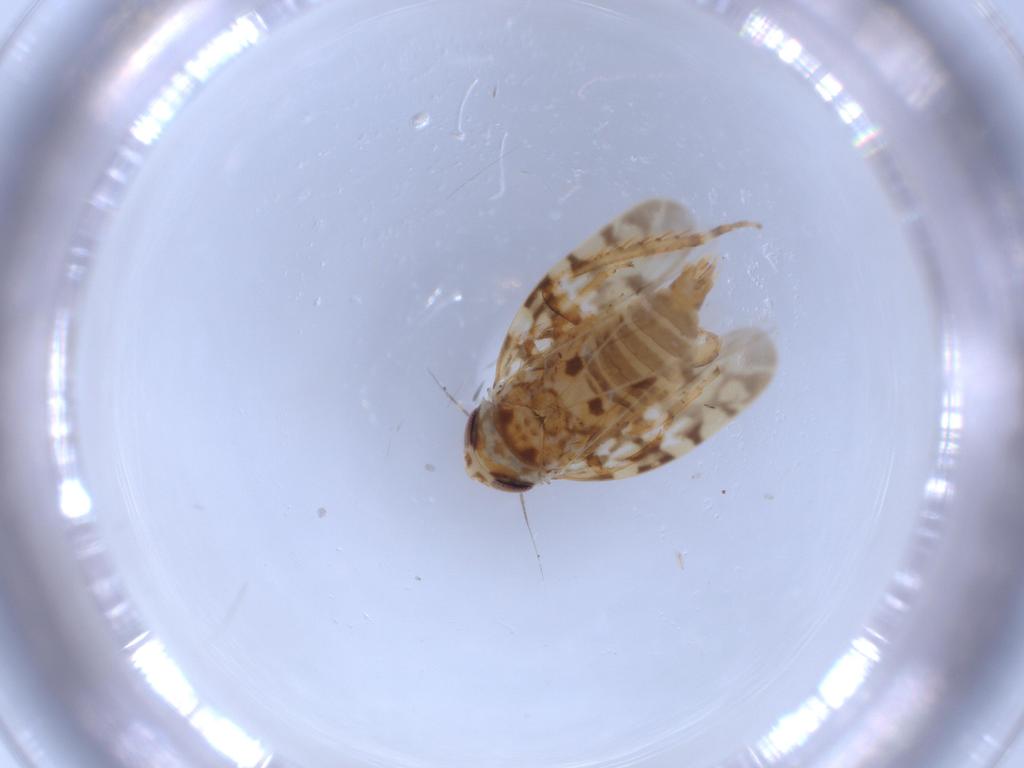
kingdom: Animalia
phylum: Arthropoda
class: Insecta
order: Hemiptera
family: Cicadellidae
